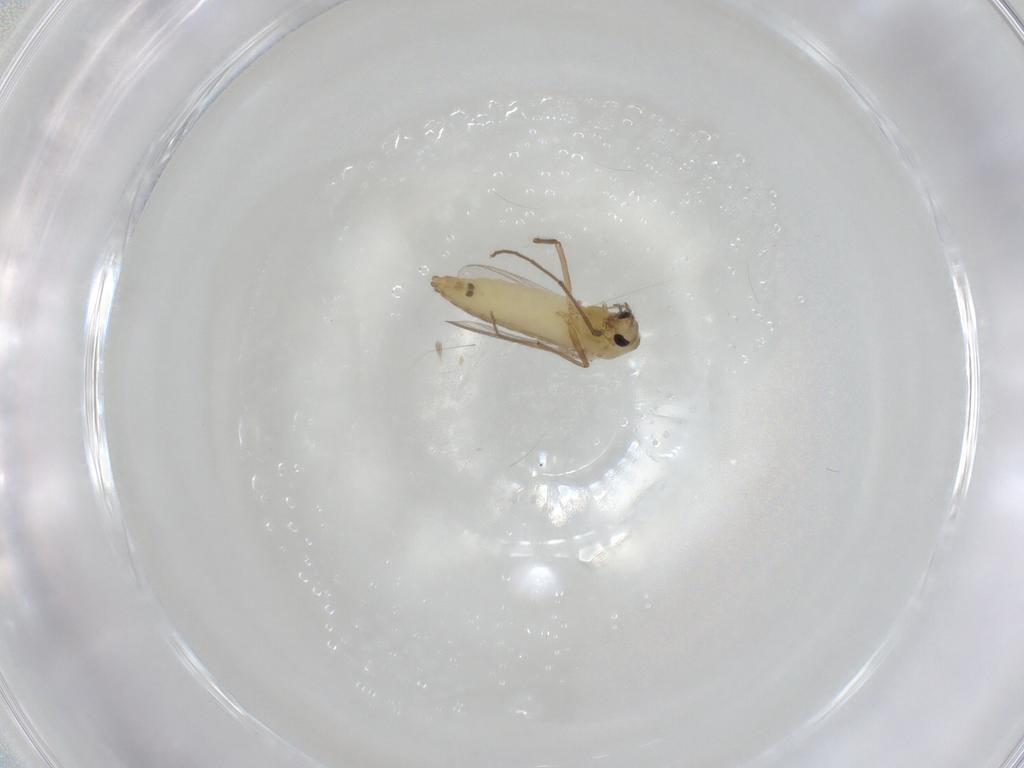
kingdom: Animalia
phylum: Arthropoda
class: Insecta
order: Diptera
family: Chironomidae
